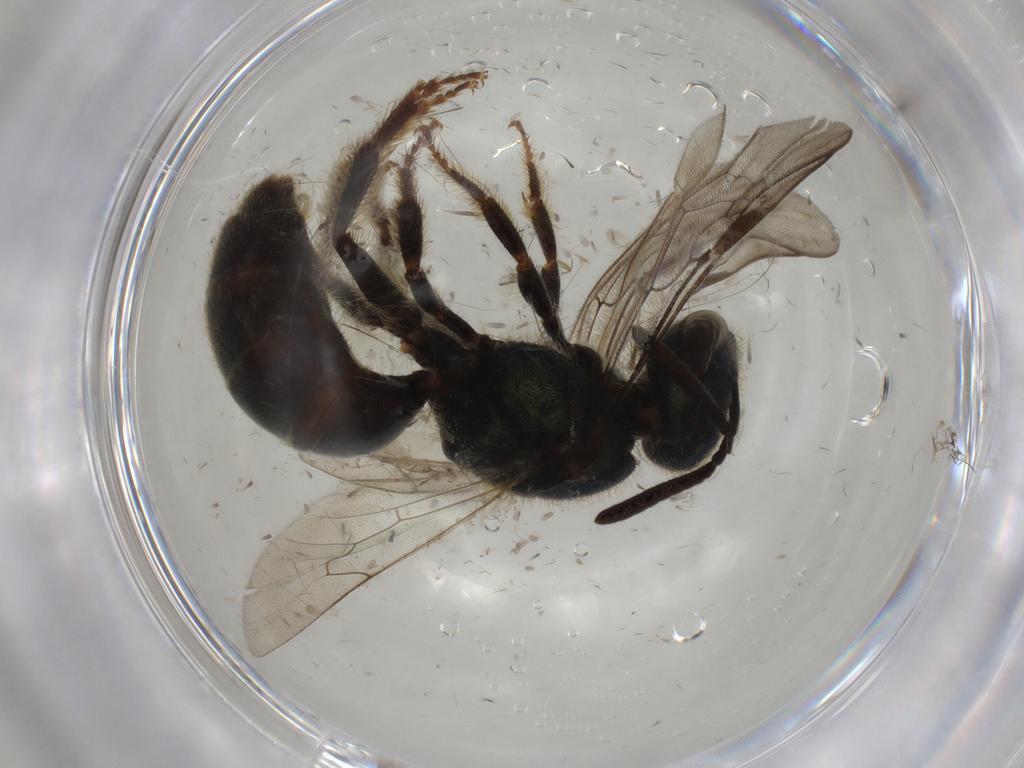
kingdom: Animalia
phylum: Arthropoda
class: Insecta
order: Hymenoptera
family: Halictidae
